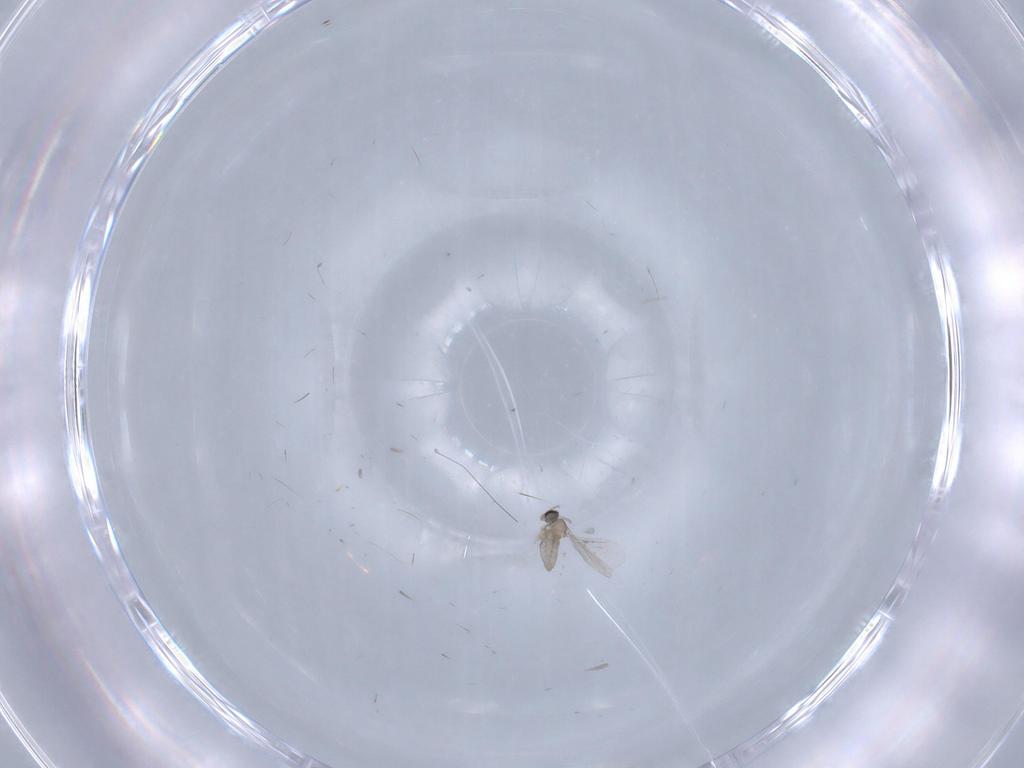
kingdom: Animalia
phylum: Arthropoda
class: Insecta
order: Diptera
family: Cecidomyiidae
